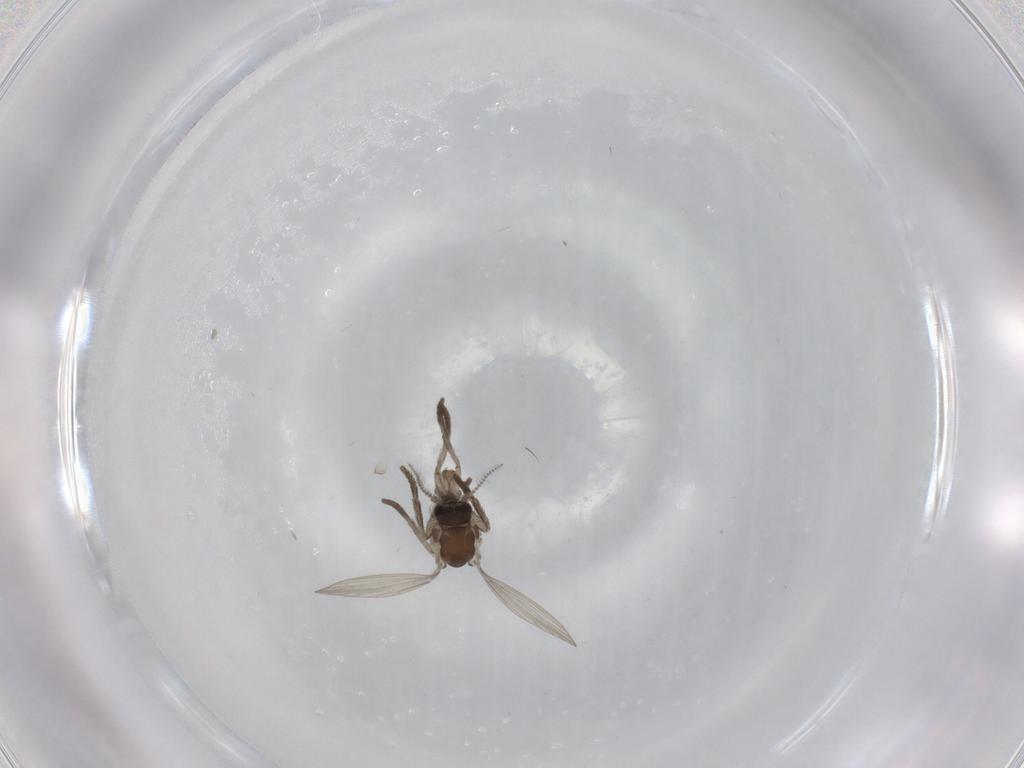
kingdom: Animalia
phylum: Arthropoda
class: Insecta
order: Diptera
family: Psychodidae
